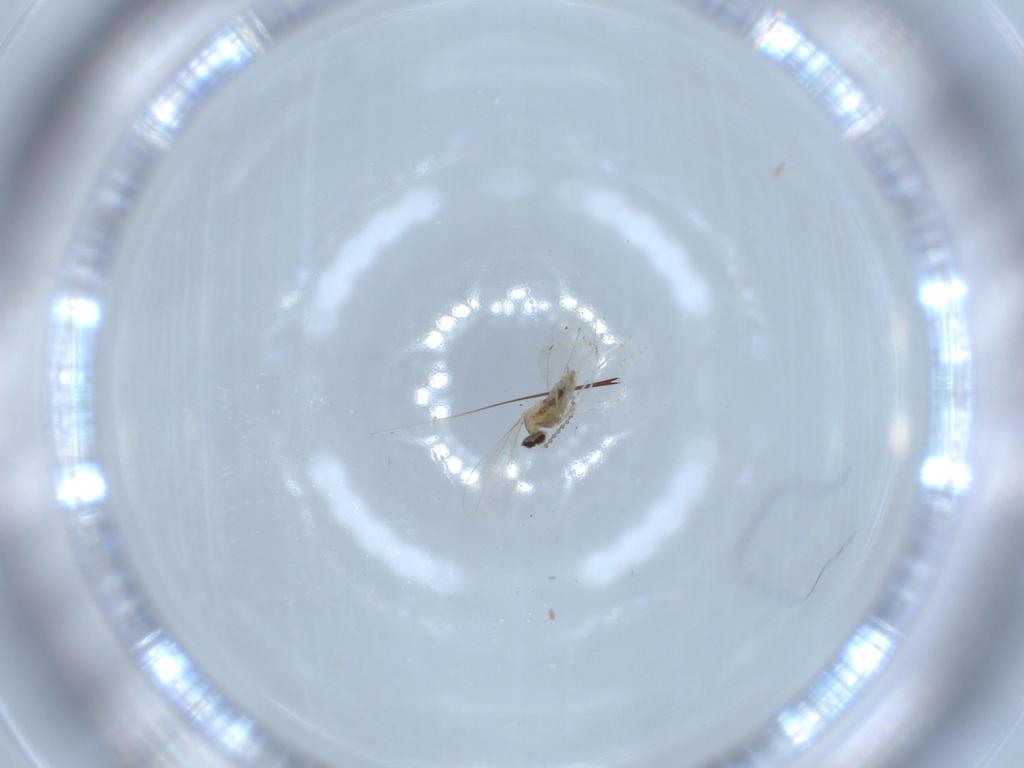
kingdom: Animalia
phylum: Arthropoda
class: Insecta
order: Diptera
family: Cecidomyiidae
